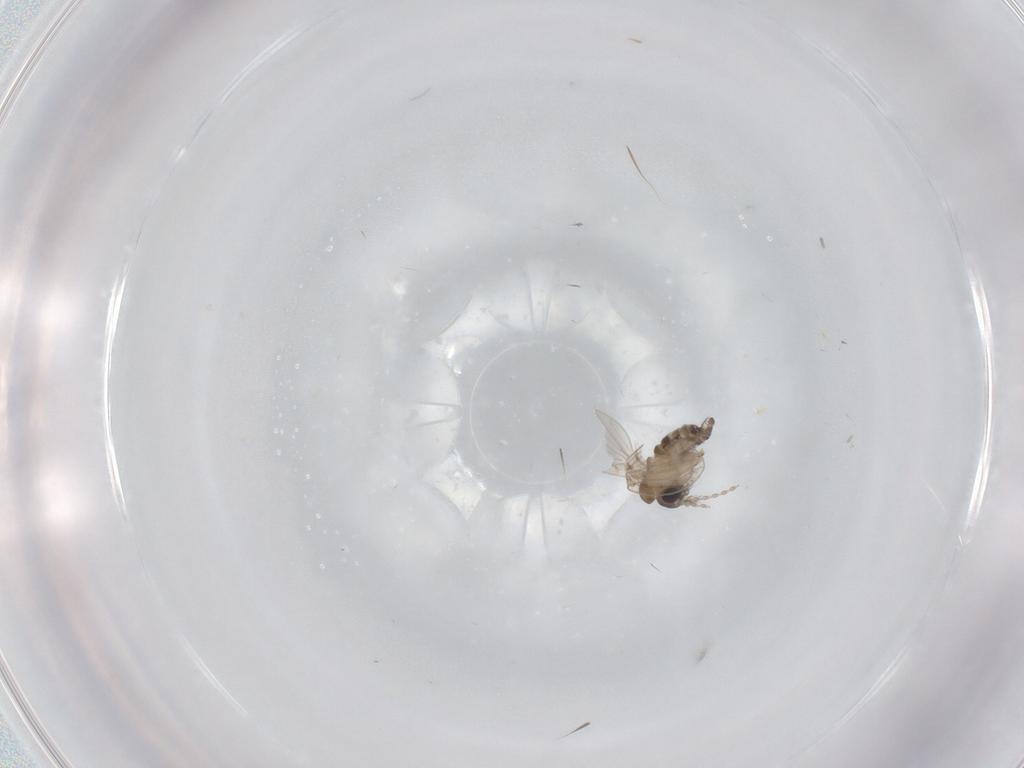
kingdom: Animalia
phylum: Arthropoda
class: Insecta
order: Diptera
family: Cecidomyiidae
